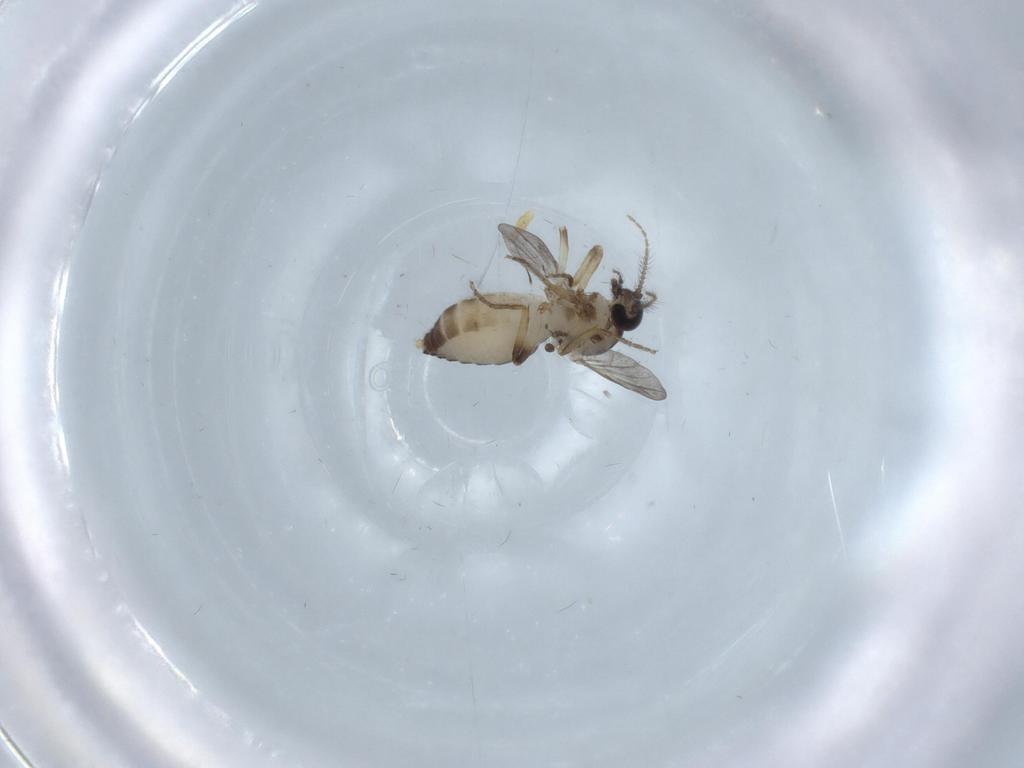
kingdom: Animalia
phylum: Arthropoda
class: Insecta
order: Diptera
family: Ceratopogonidae
